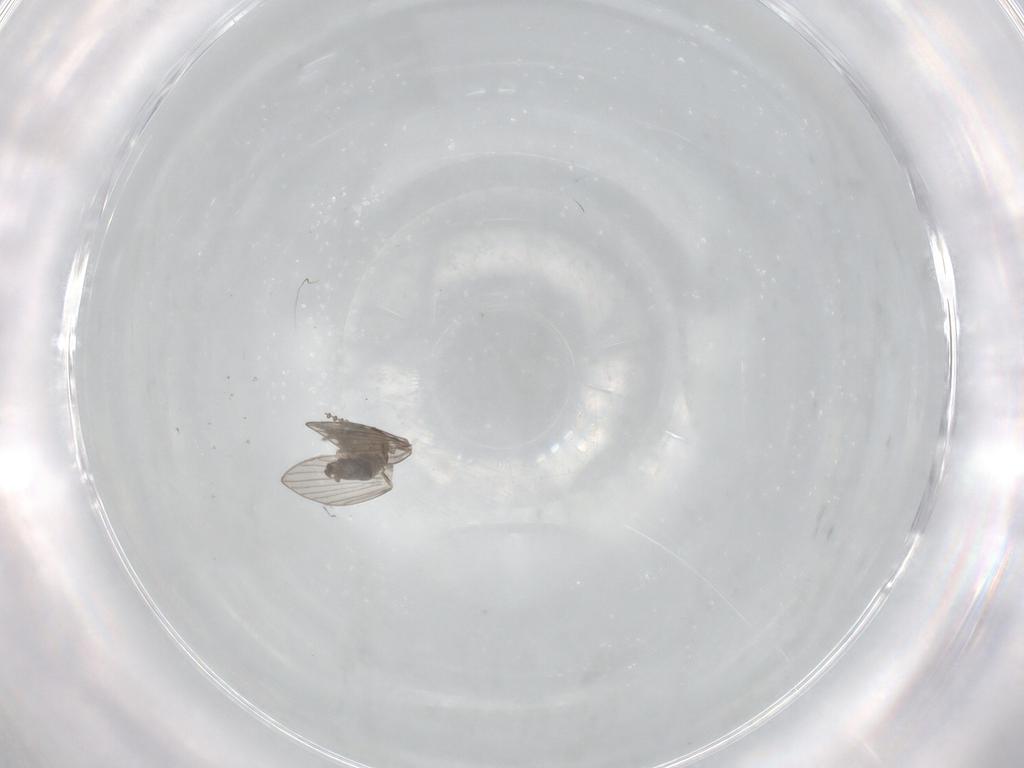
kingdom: Animalia
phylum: Arthropoda
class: Insecta
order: Diptera
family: Psychodidae
